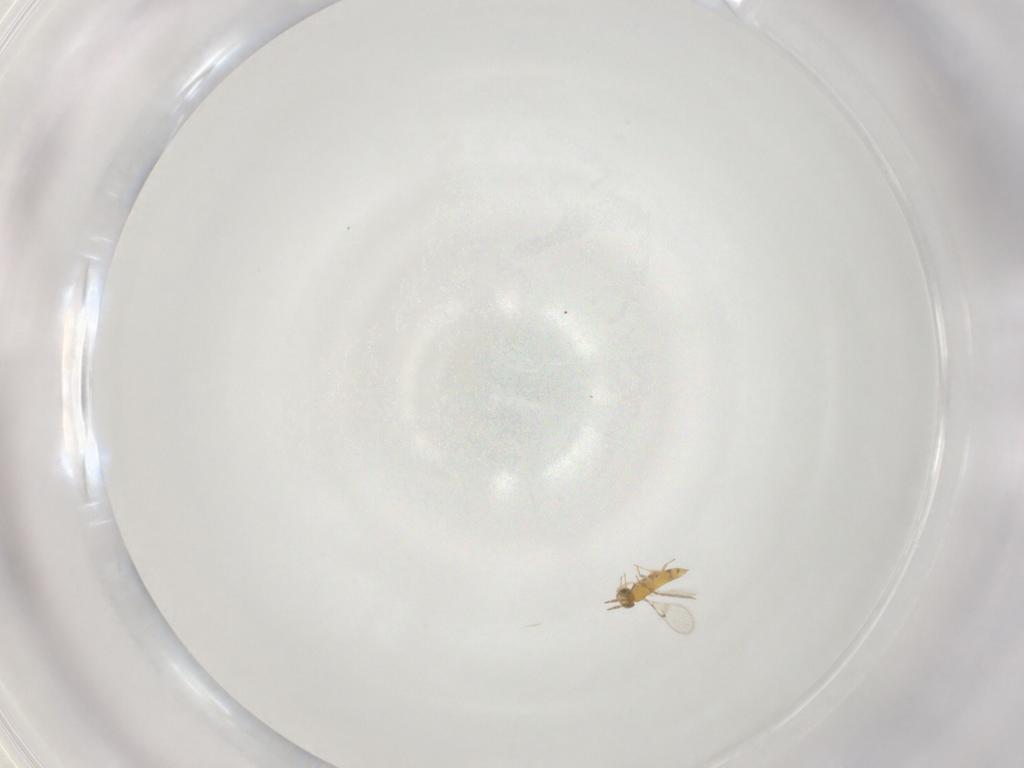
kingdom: Animalia
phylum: Arthropoda
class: Insecta
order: Hymenoptera
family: Trichogrammatidae
